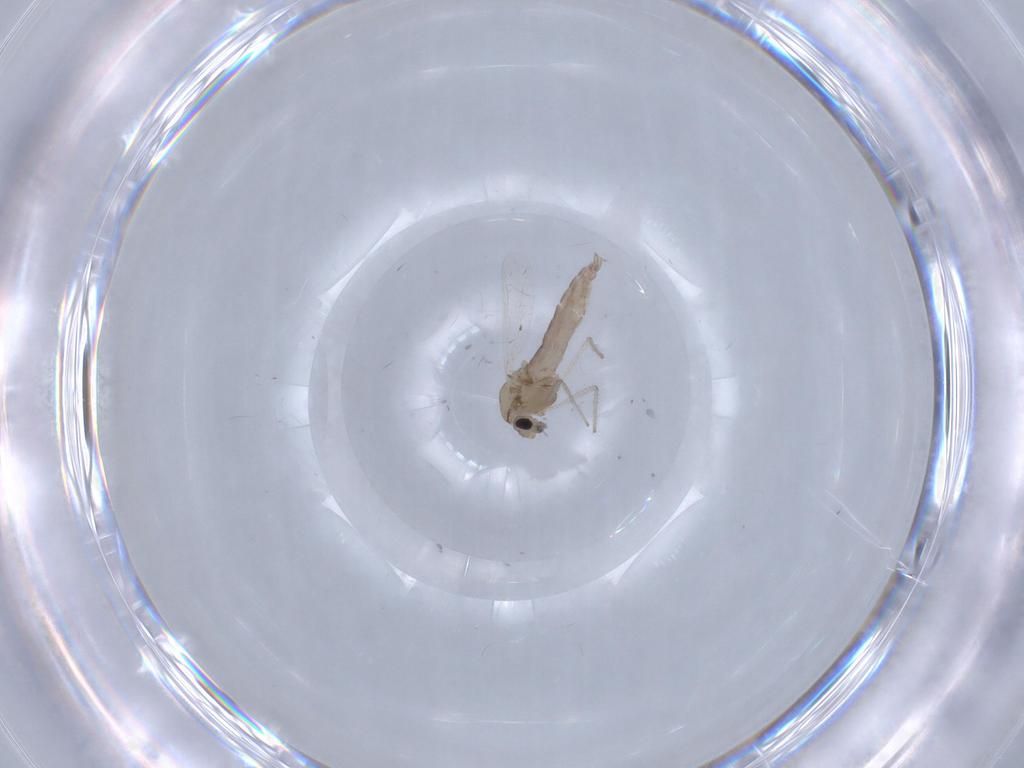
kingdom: Animalia
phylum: Arthropoda
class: Insecta
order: Diptera
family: Chironomidae
